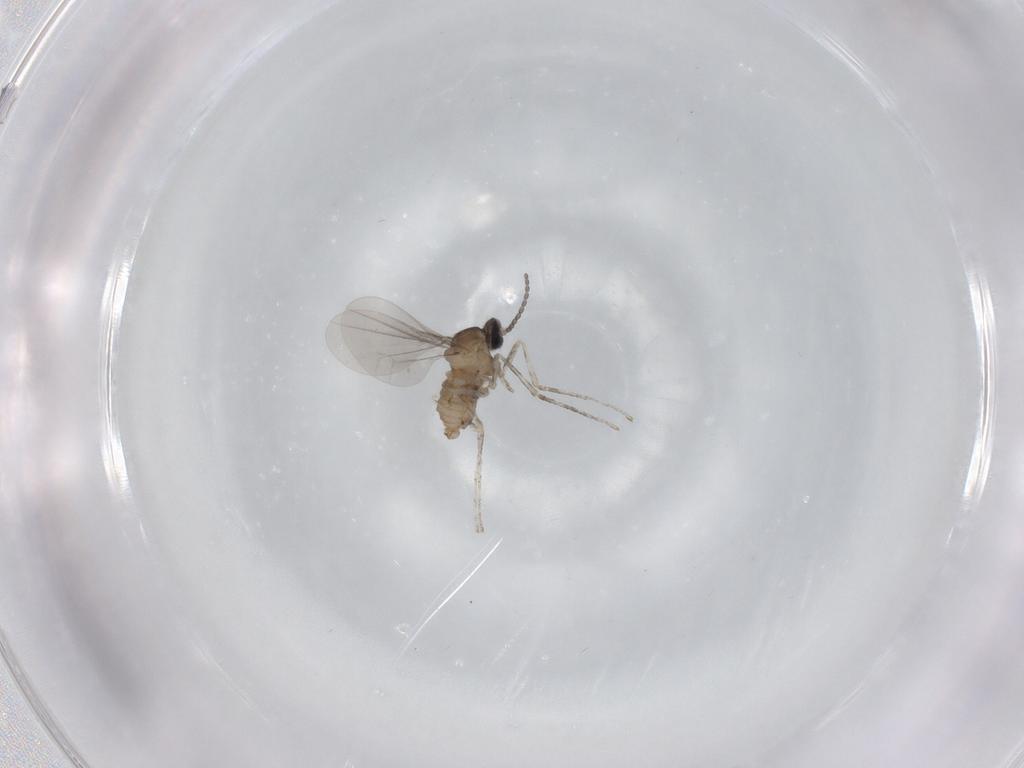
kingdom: Animalia
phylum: Arthropoda
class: Insecta
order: Diptera
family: Cecidomyiidae
